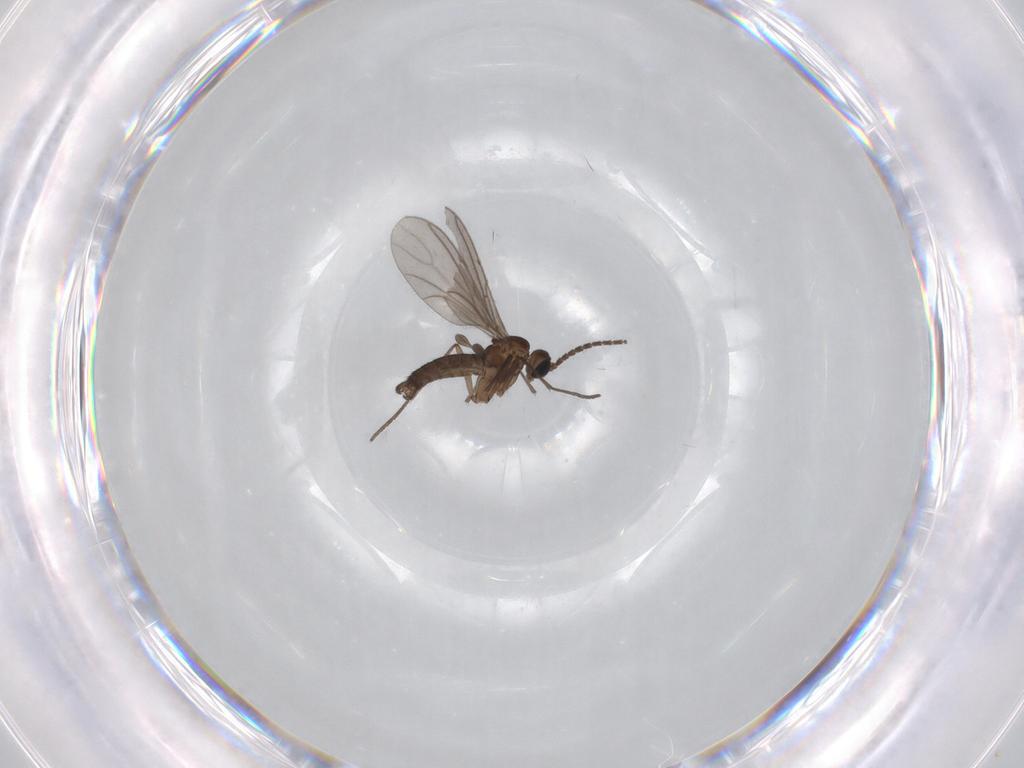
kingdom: Animalia
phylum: Arthropoda
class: Insecta
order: Diptera
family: Sciaridae
